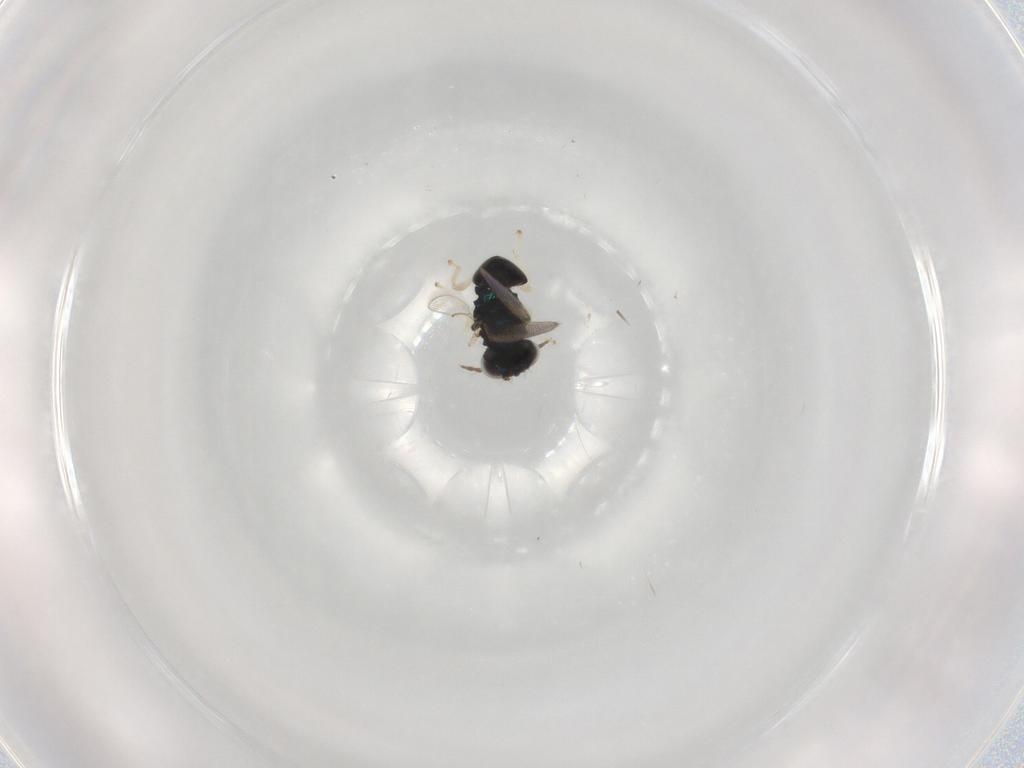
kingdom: Animalia
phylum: Arthropoda
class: Insecta
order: Hymenoptera
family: Eulophidae
